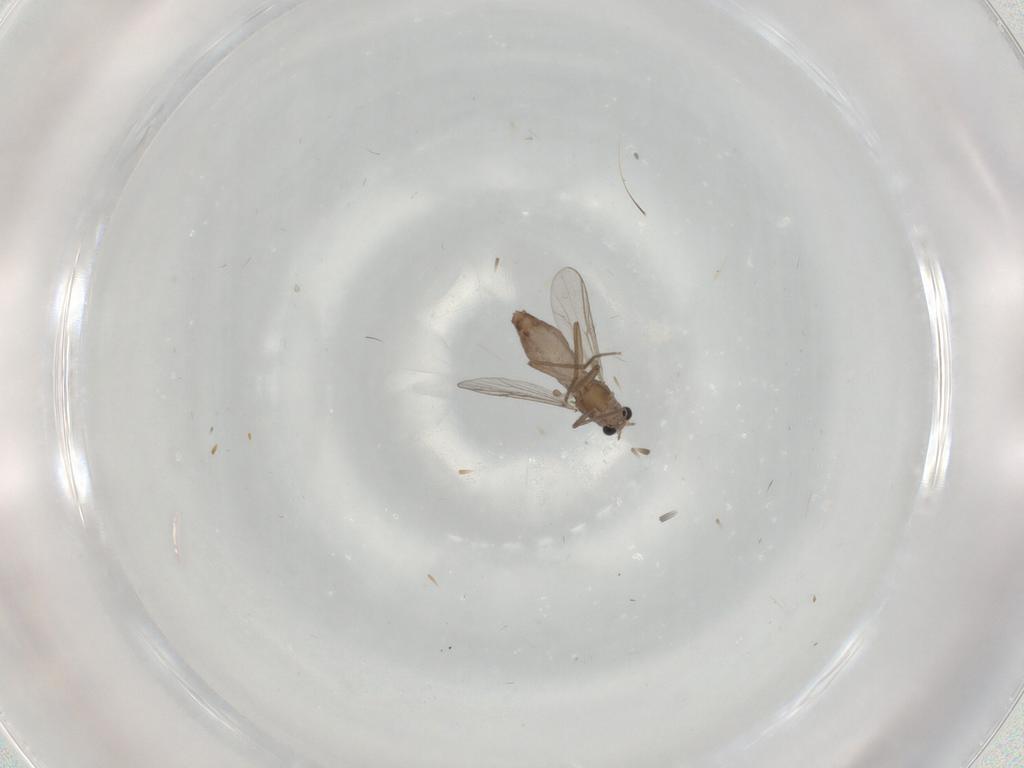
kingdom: Animalia
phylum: Arthropoda
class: Insecta
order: Diptera
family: Chironomidae
